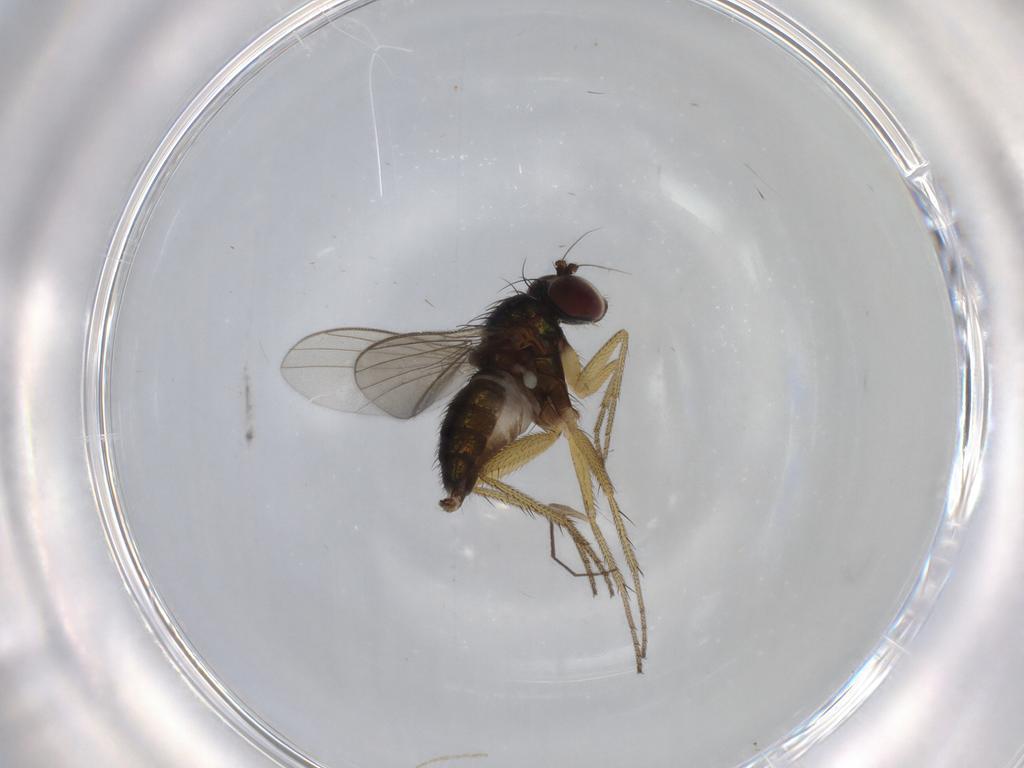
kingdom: Animalia
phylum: Arthropoda
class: Insecta
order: Diptera
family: Dolichopodidae
